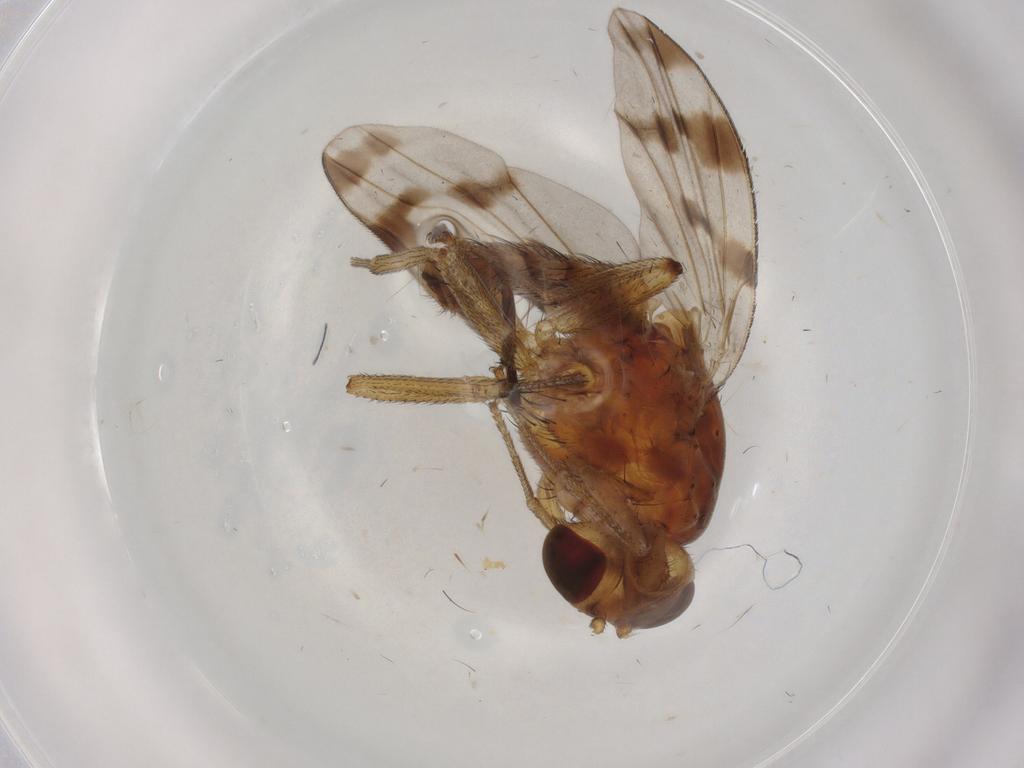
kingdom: Animalia
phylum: Arthropoda
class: Insecta
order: Diptera
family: Lauxaniidae
